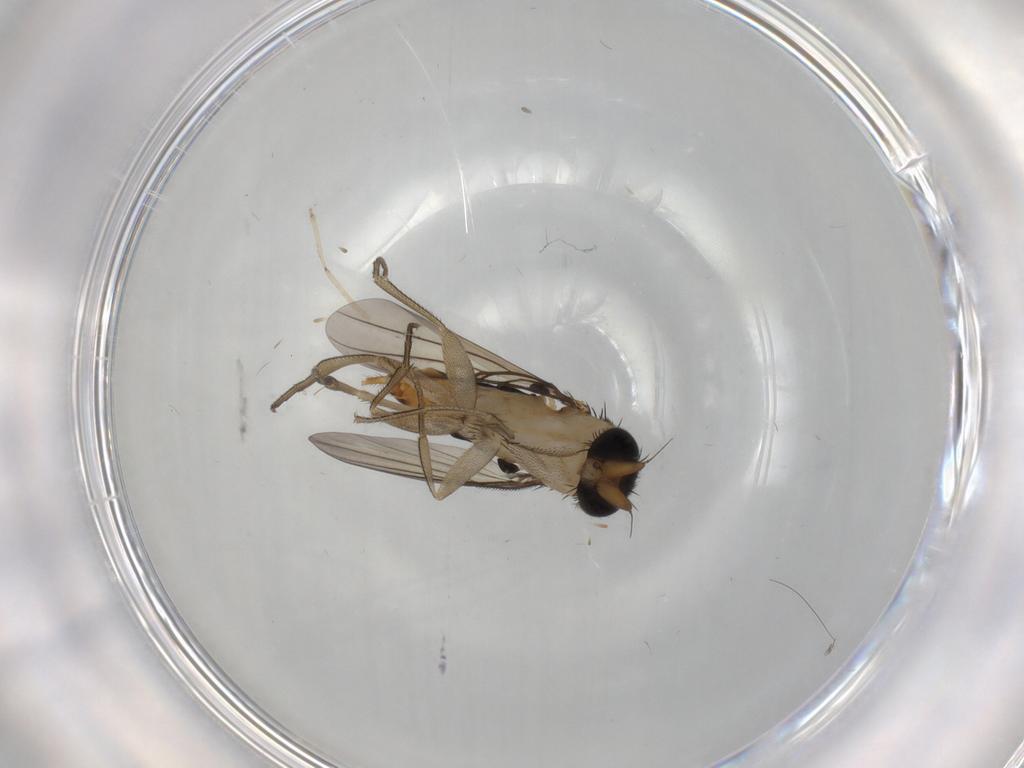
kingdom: Animalia
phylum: Arthropoda
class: Insecta
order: Diptera
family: Phoridae
